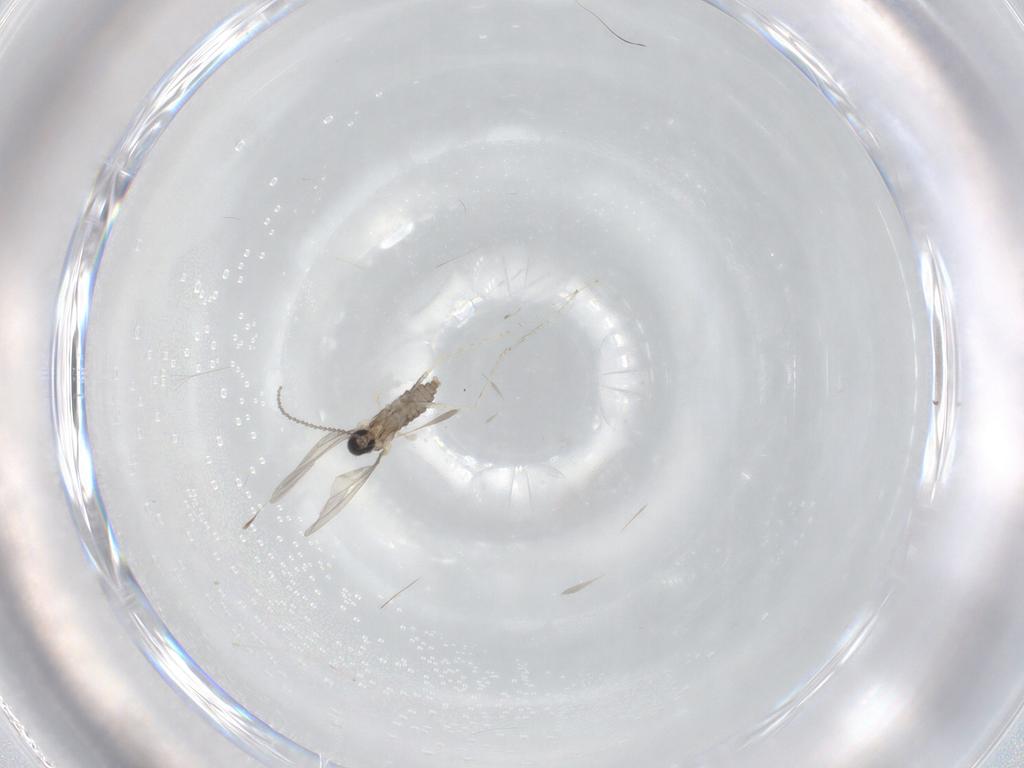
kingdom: Animalia
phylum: Arthropoda
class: Insecta
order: Diptera
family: Cecidomyiidae
